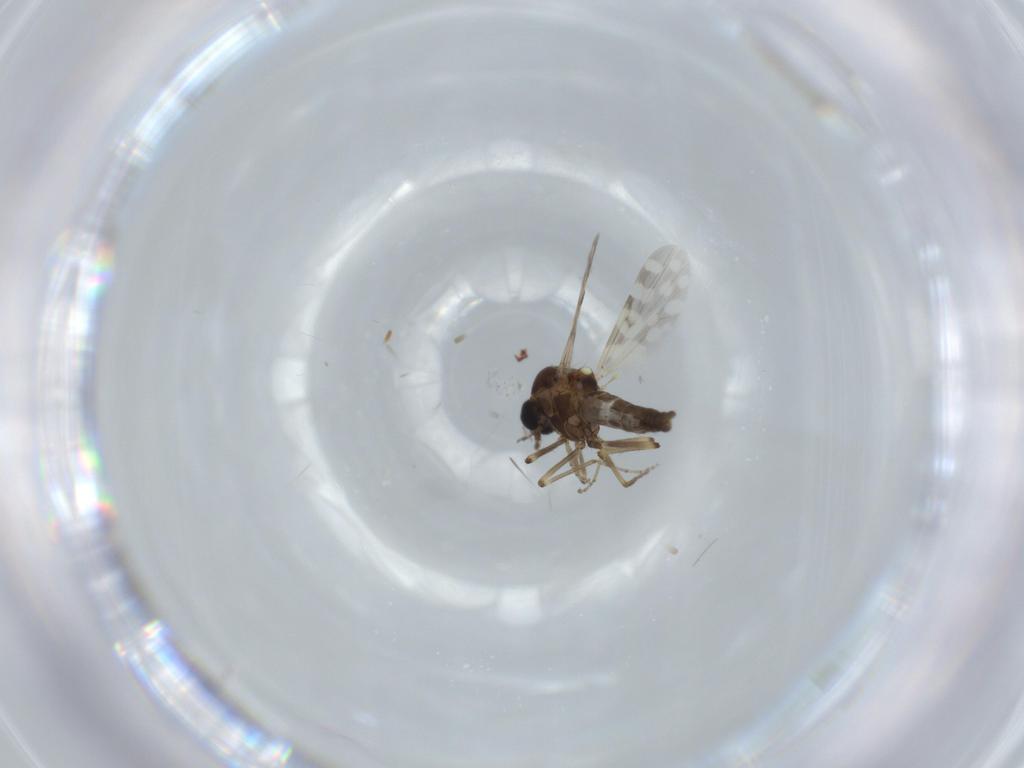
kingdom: Animalia
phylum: Arthropoda
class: Insecta
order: Diptera
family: Ceratopogonidae
